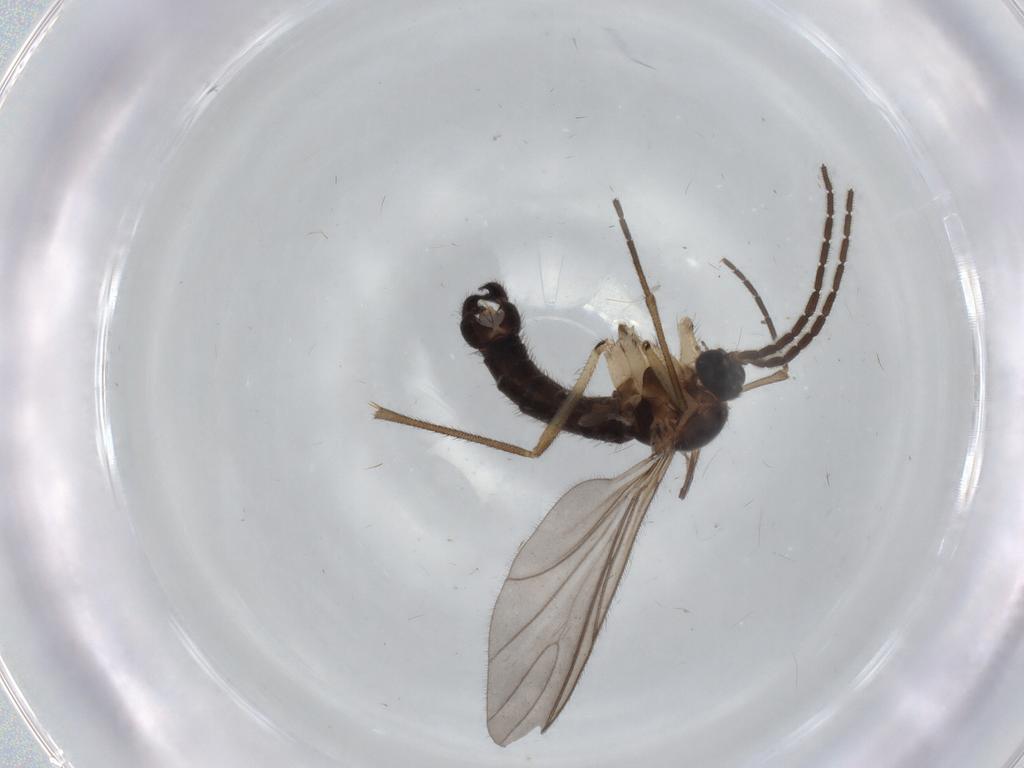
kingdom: Animalia
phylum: Arthropoda
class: Insecta
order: Diptera
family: Sciaridae
